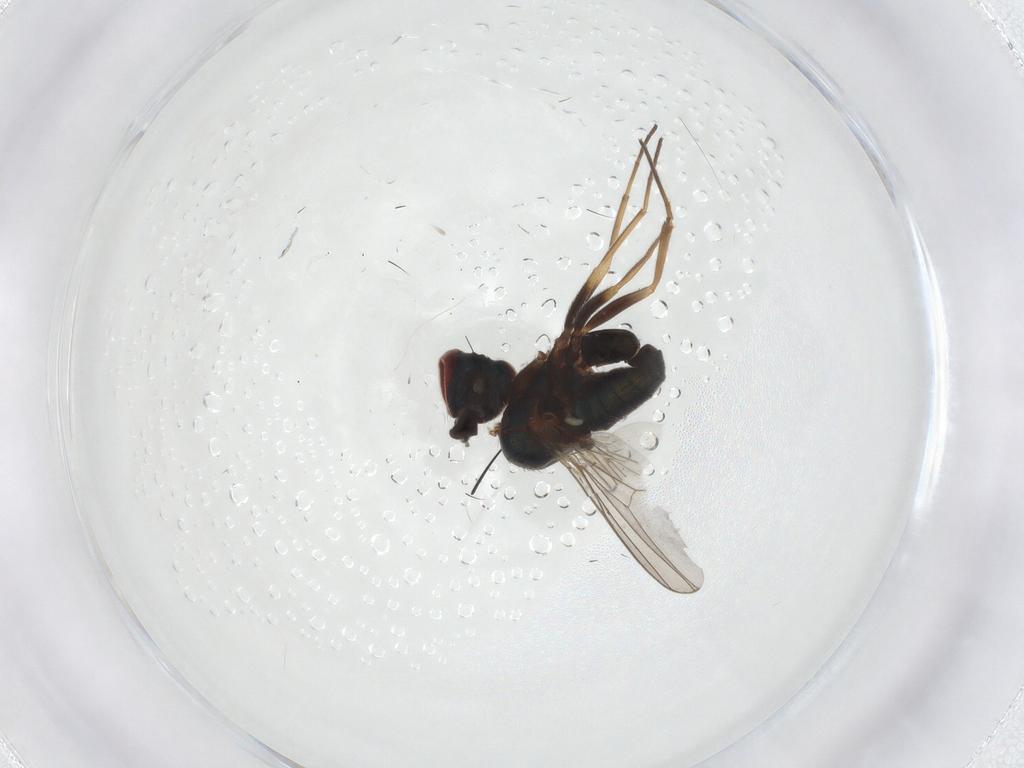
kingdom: Animalia
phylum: Arthropoda
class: Insecta
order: Diptera
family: Dolichopodidae
